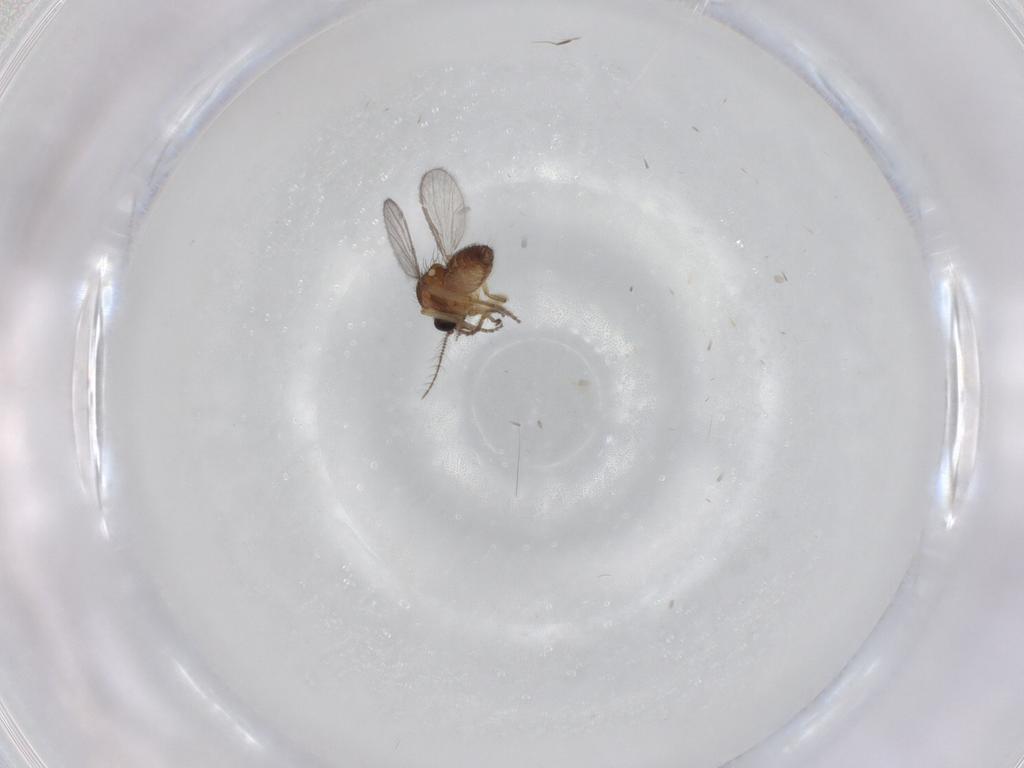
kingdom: Animalia
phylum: Arthropoda
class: Insecta
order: Diptera
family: Ceratopogonidae
